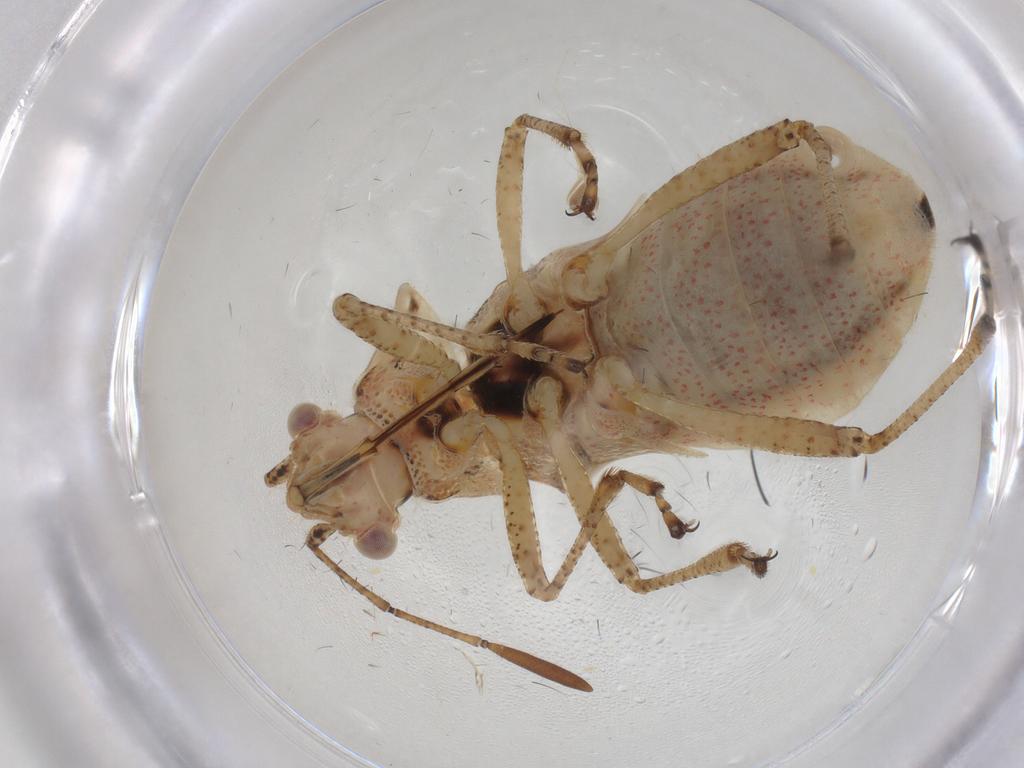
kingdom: Animalia
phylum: Arthropoda
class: Insecta
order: Hemiptera
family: Rhopalidae
